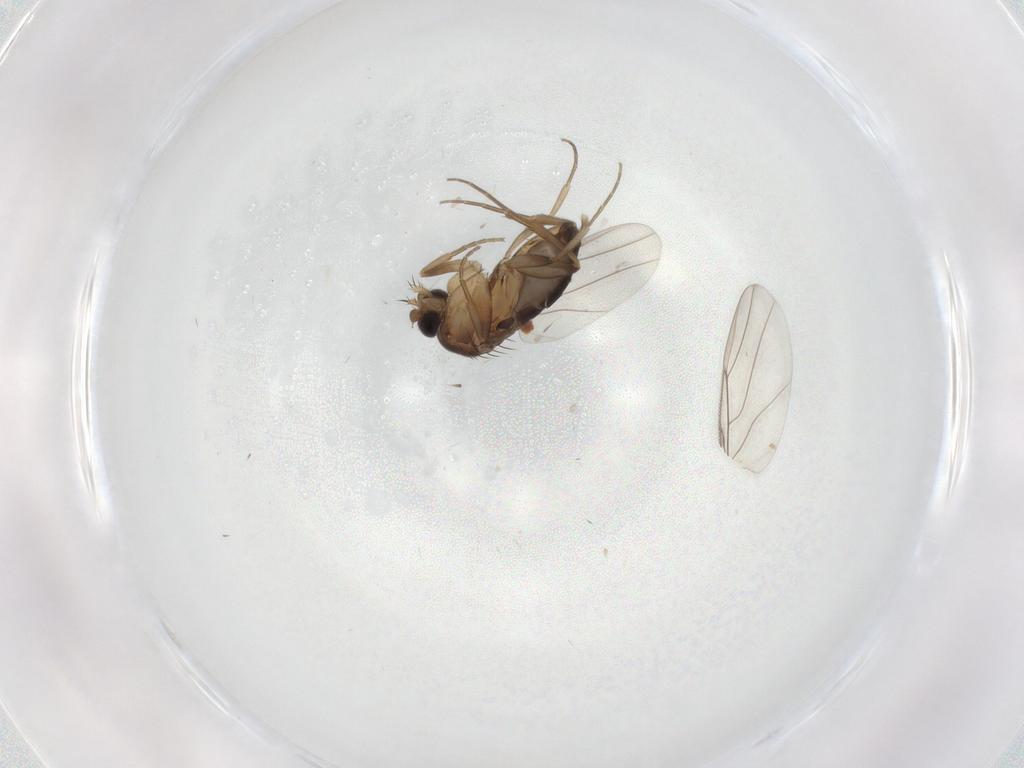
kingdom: Animalia
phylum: Arthropoda
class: Insecta
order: Diptera
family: Phoridae
